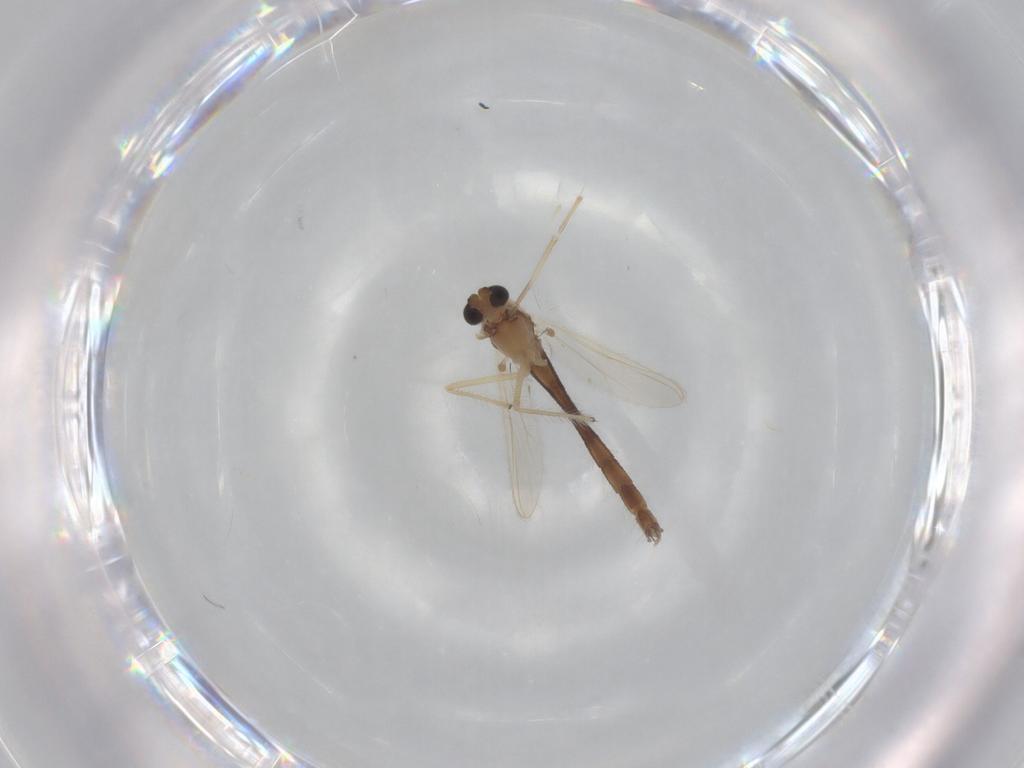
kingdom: Animalia
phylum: Arthropoda
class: Insecta
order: Diptera
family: Chironomidae
